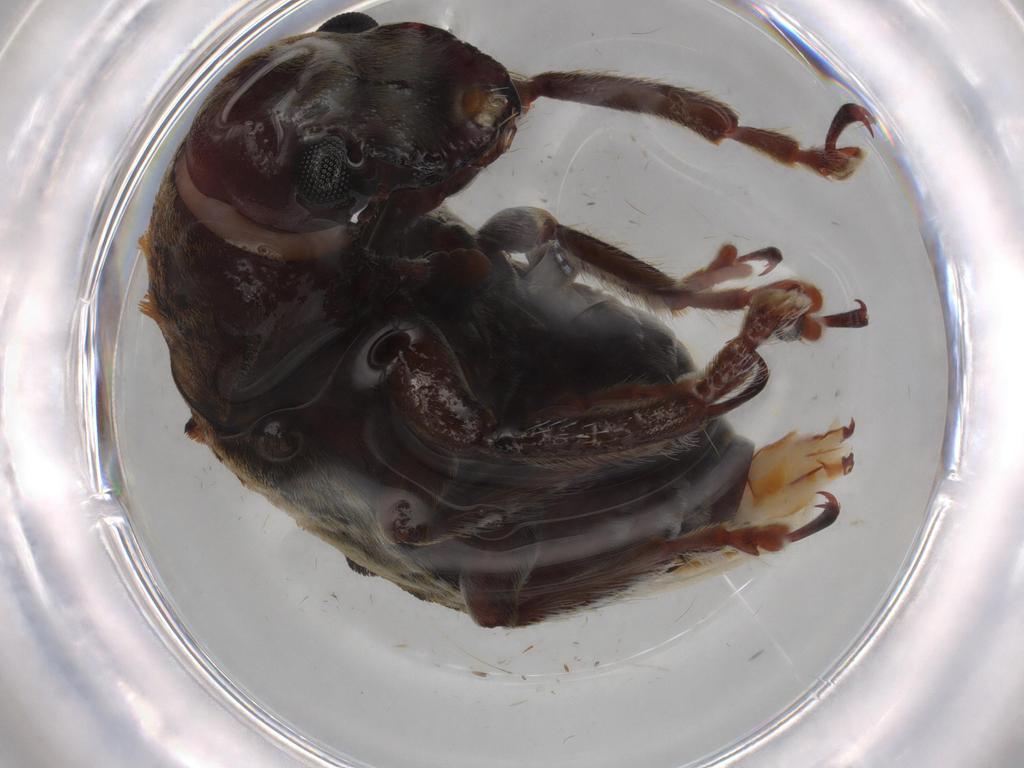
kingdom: Animalia
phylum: Arthropoda
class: Insecta
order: Coleoptera
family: Anthribidae
